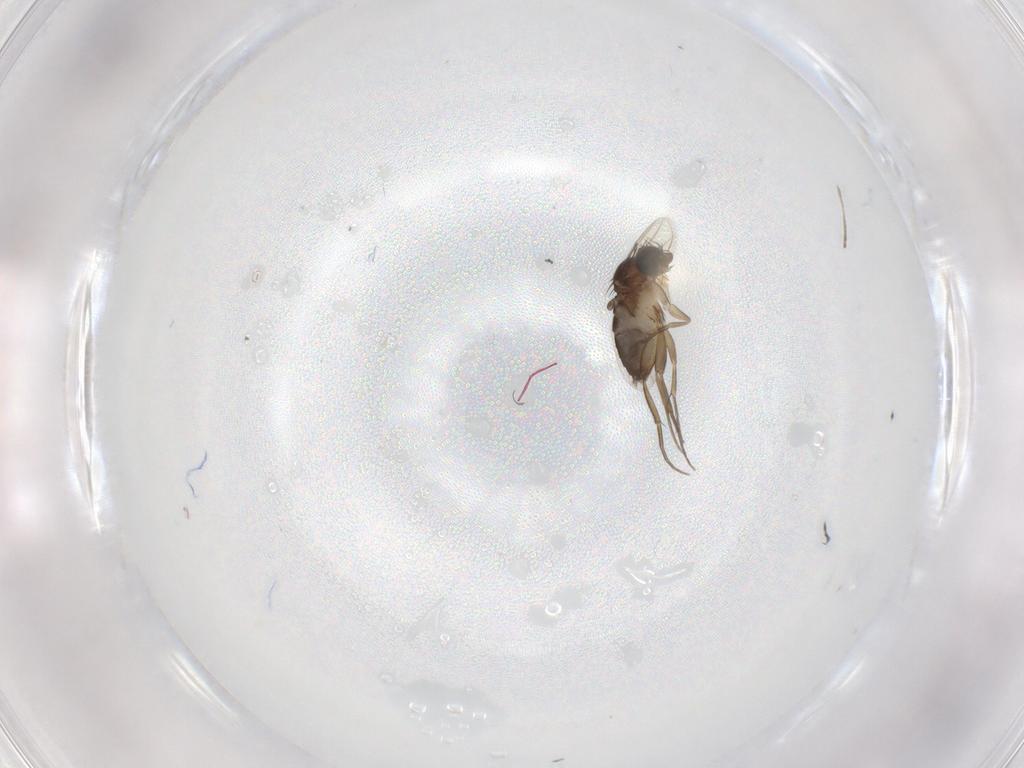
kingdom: Animalia
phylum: Arthropoda
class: Insecta
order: Diptera
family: Phoridae
